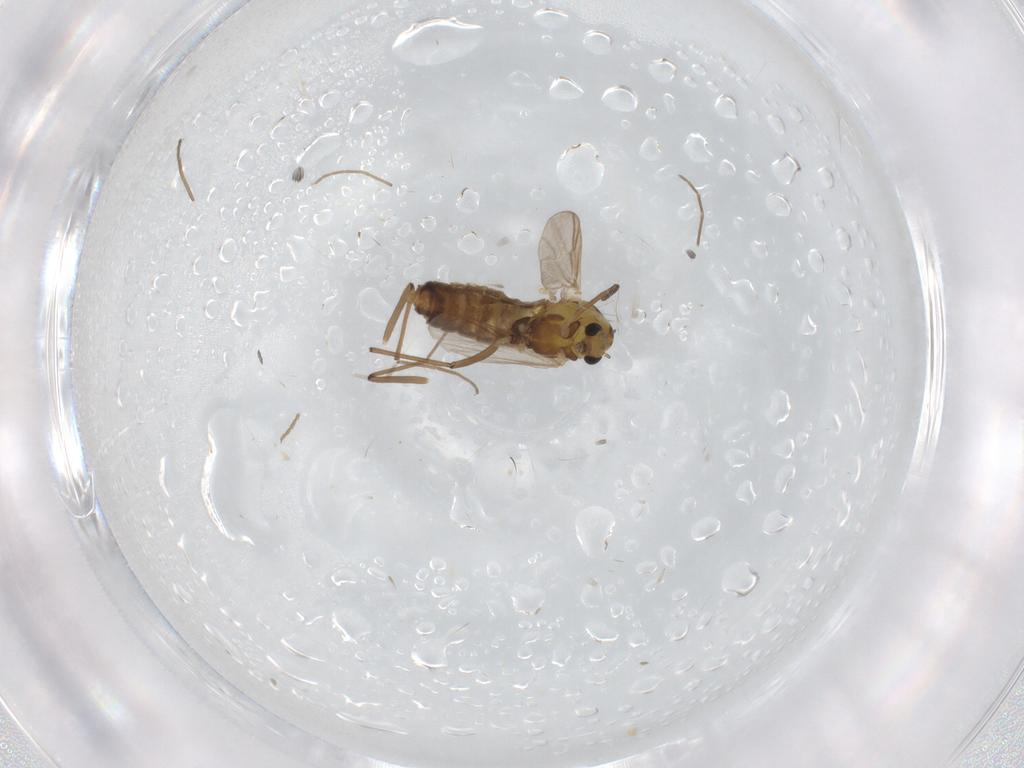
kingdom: Animalia
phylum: Arthropoda
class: Insecta
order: Diptera
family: Chironomidae
